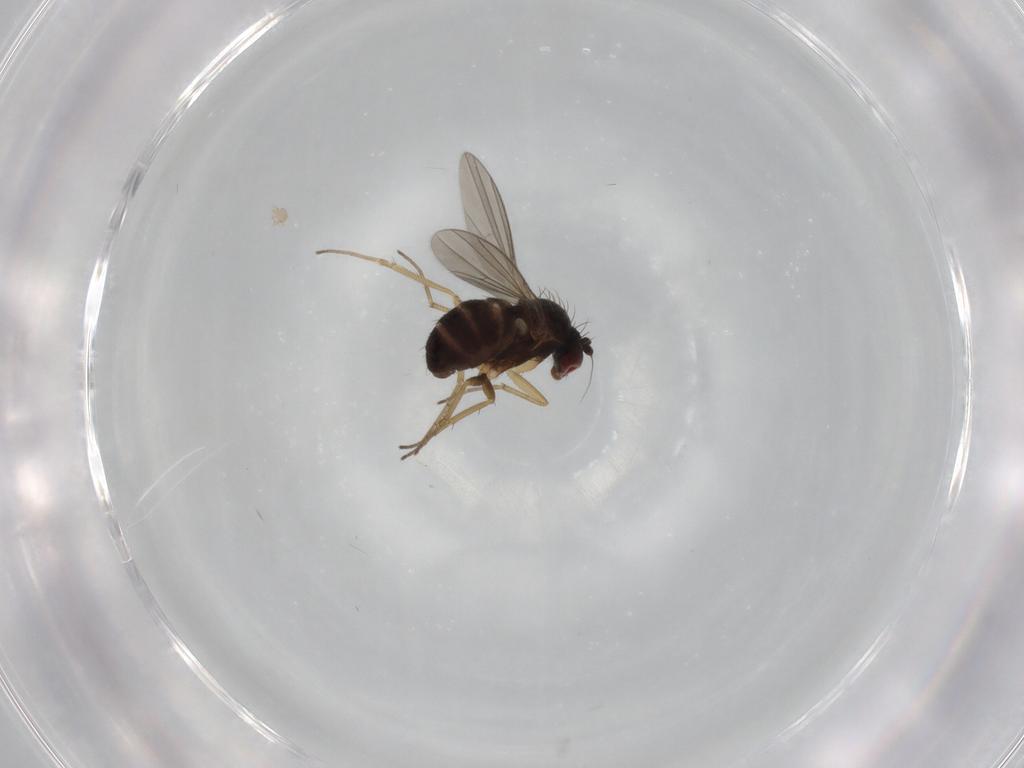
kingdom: Animalia
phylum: Arthropoda
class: Insecta
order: Diptera
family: Dolichopodidae
